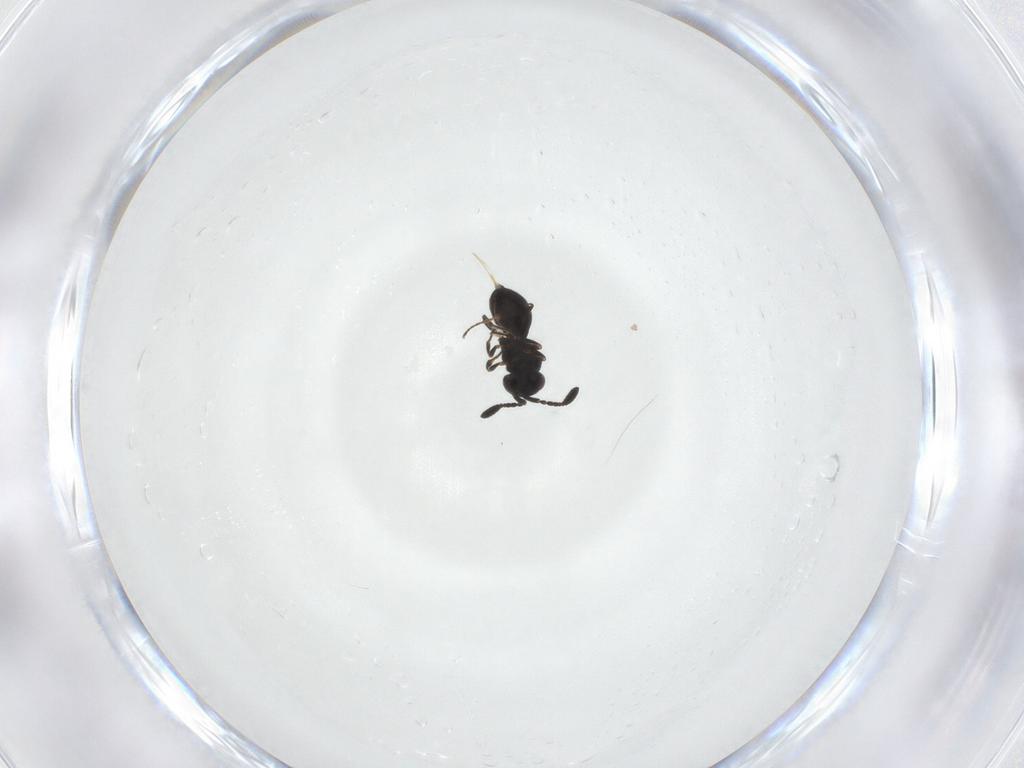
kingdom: Animalia
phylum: Arthropoda
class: Insecta
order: Hymenoptera
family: Scelionidae
